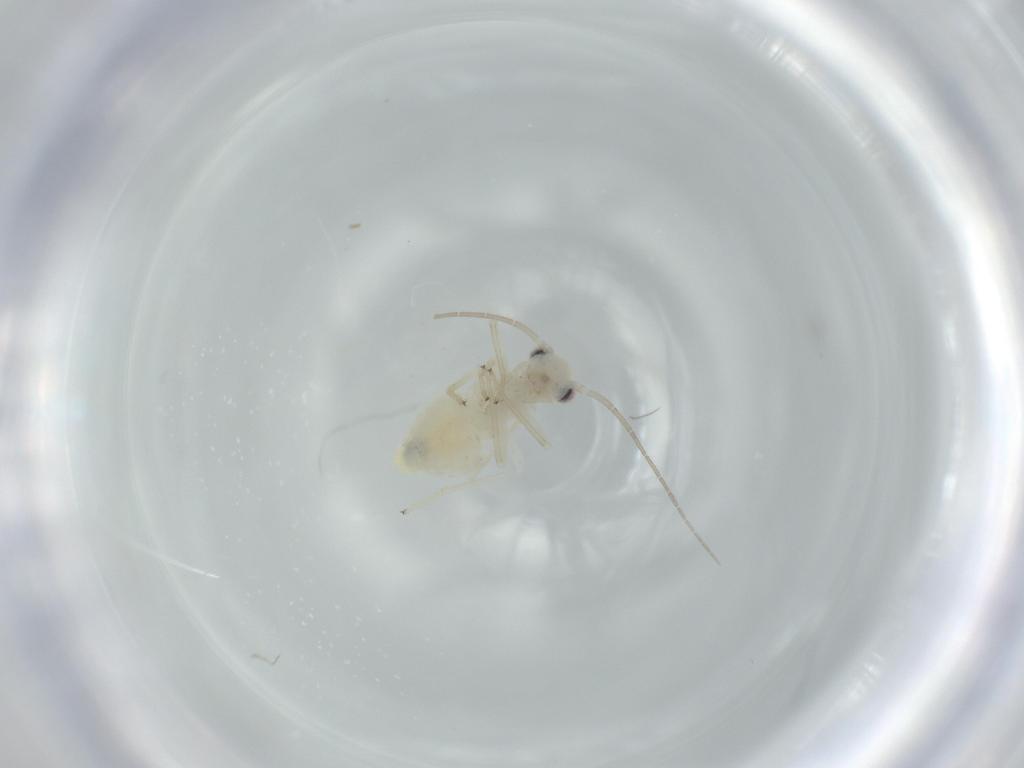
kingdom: Animalia
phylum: Arthropoda
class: Insecta
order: Psocodea
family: Caeciliusidae
